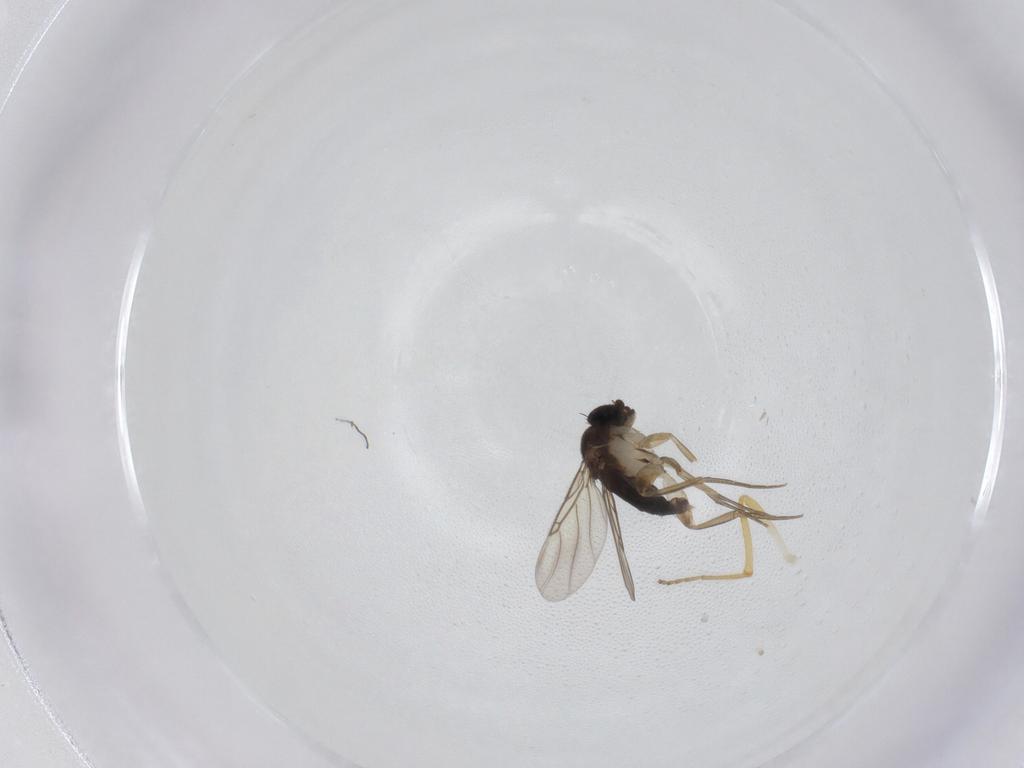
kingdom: Animalia
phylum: Arthropoda
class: Insecta
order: Diptera
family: Phoridae
